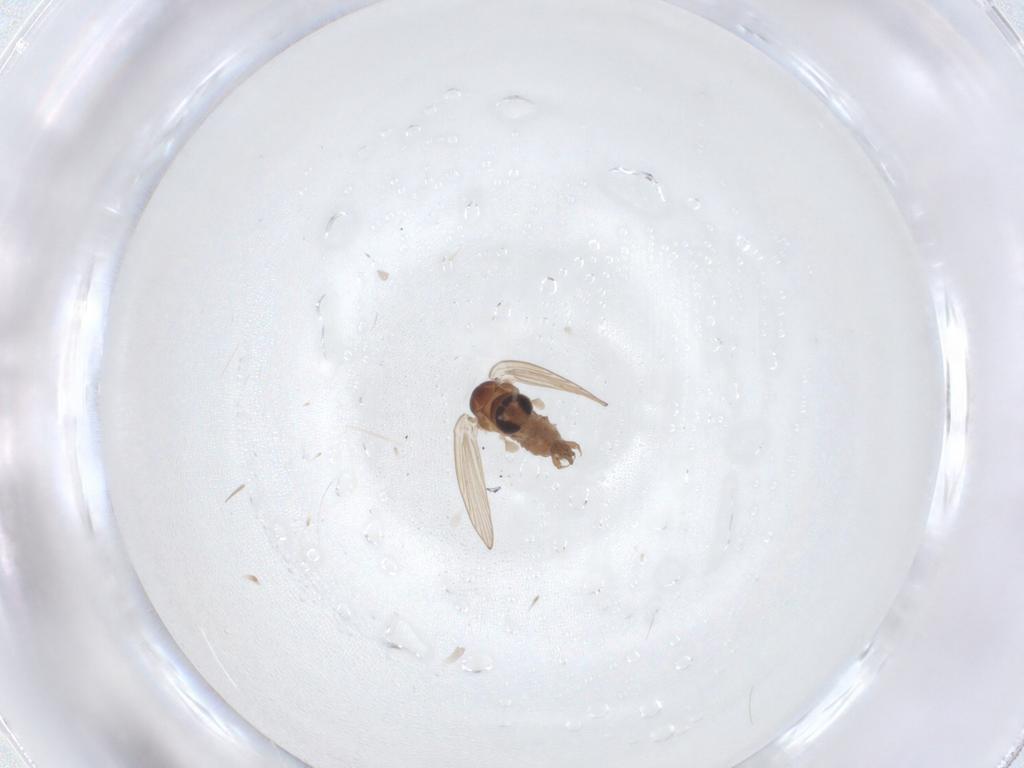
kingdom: Animalia
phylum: Arthropoda
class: Insecta
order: Diptera
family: Psychodidae
